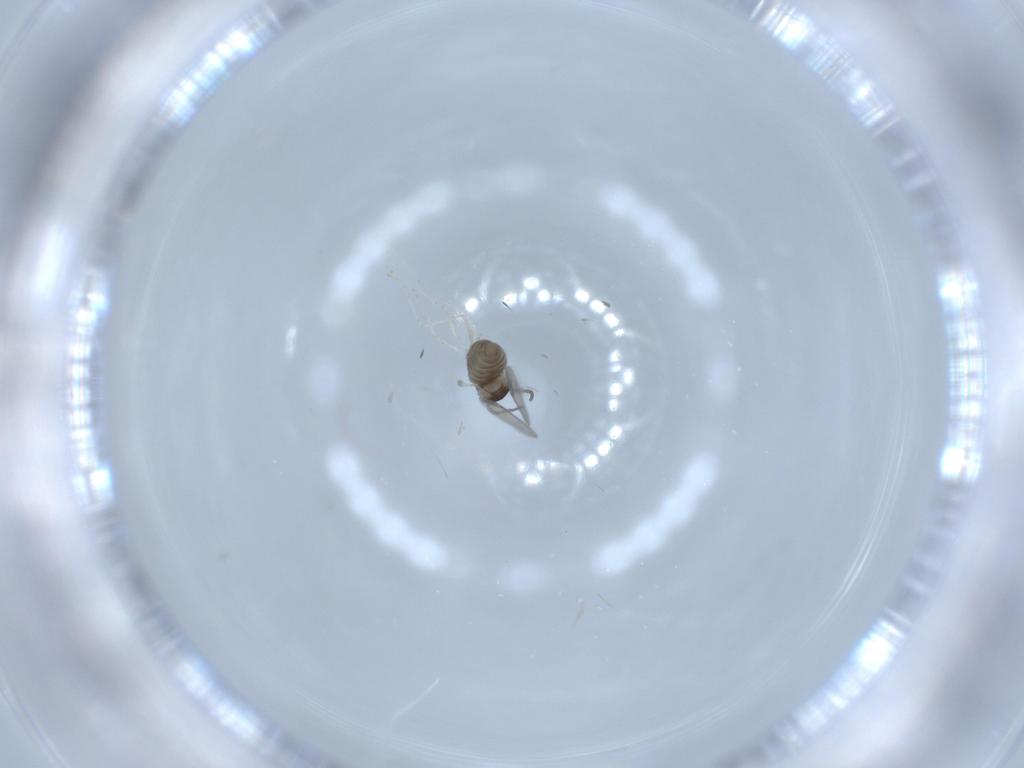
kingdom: Animalia
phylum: Arthropoda
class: Insecta
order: Diptera
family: Cecidomyiidae
